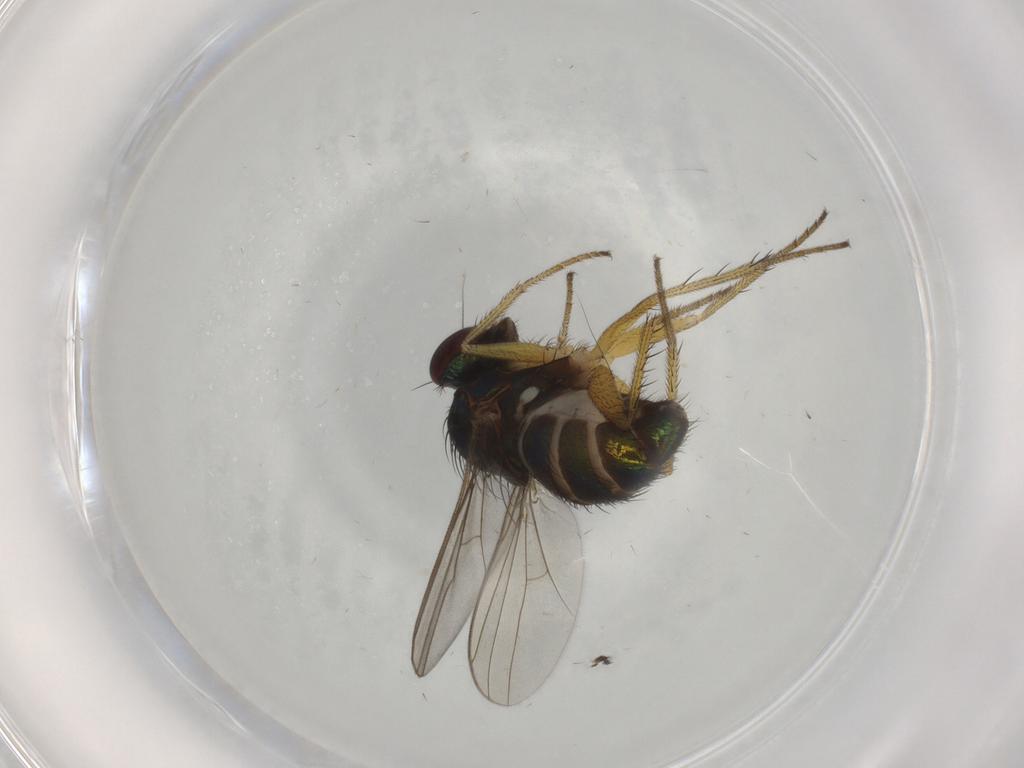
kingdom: Animalia
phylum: Arthropoda
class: Insecta
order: Diptera
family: Dolichopodidae
